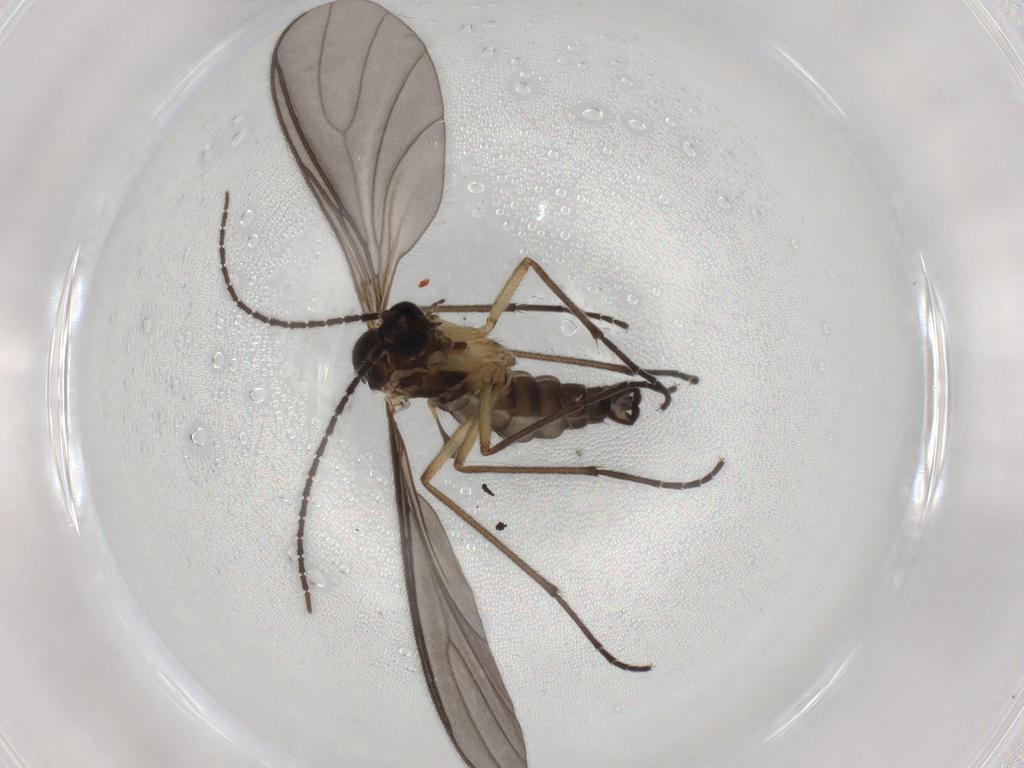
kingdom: Animalia
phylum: Arthropoda
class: Insecta
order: Diptera
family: Sciaridae
